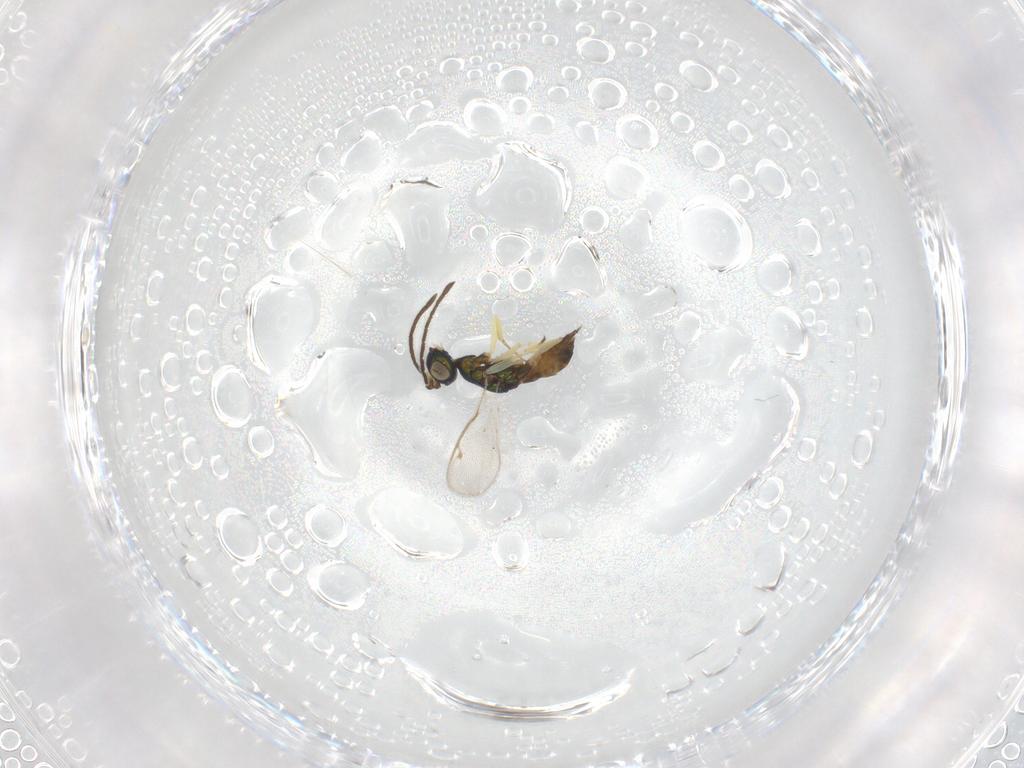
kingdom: Animalia
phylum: Arthropoda
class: Insecta
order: Hymenoptera
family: Pteromalidae
